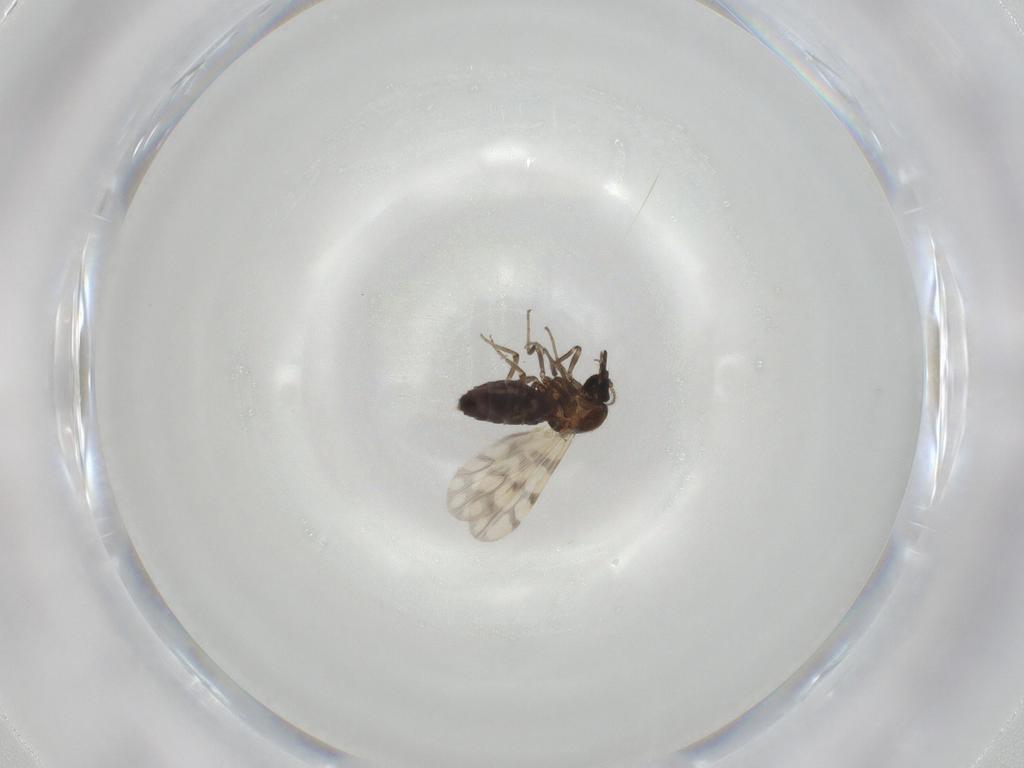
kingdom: Animalia
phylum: Arthropoda
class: Insecta
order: Diptera
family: Ceratopogonidae
